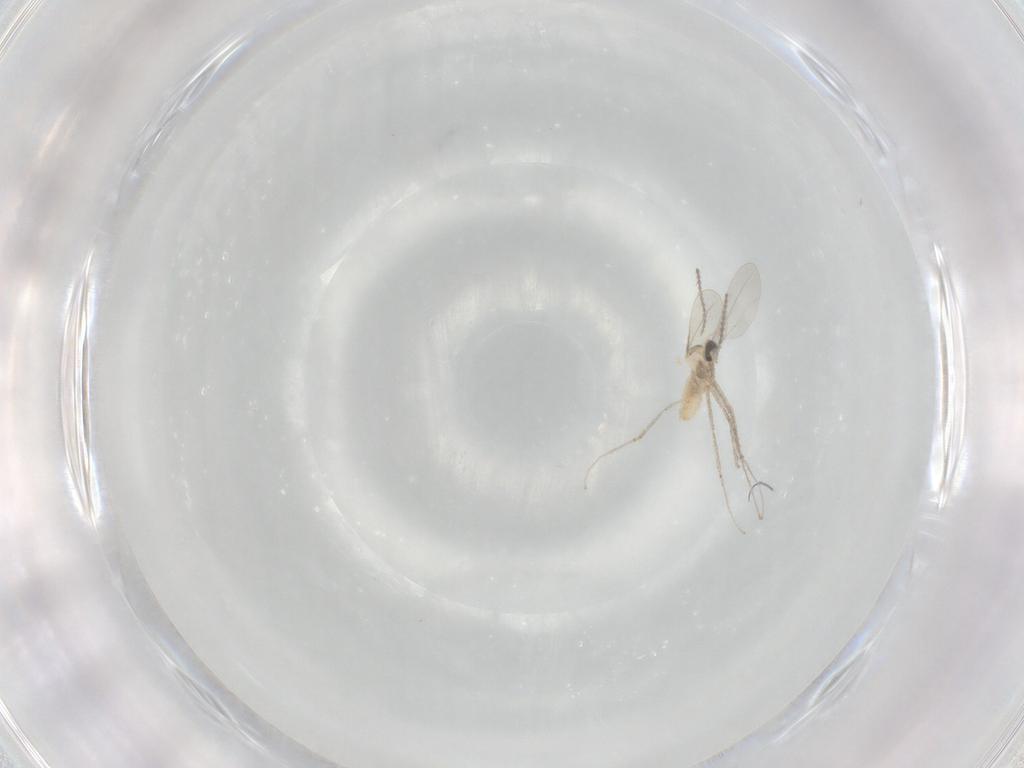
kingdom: Animalia
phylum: Arthropoda
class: Insecta
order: Diptera
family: Cecidomyiidae
